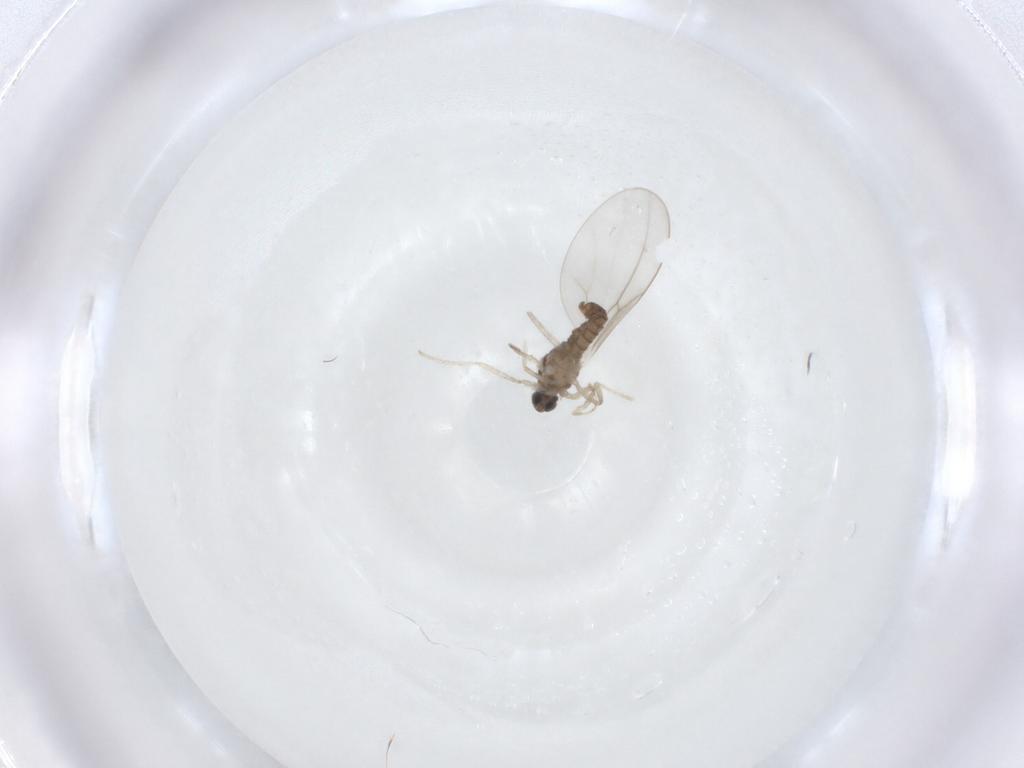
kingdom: Animalia
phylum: Arthropoda
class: Insecta
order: Diptera
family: Cecidomyiidae
